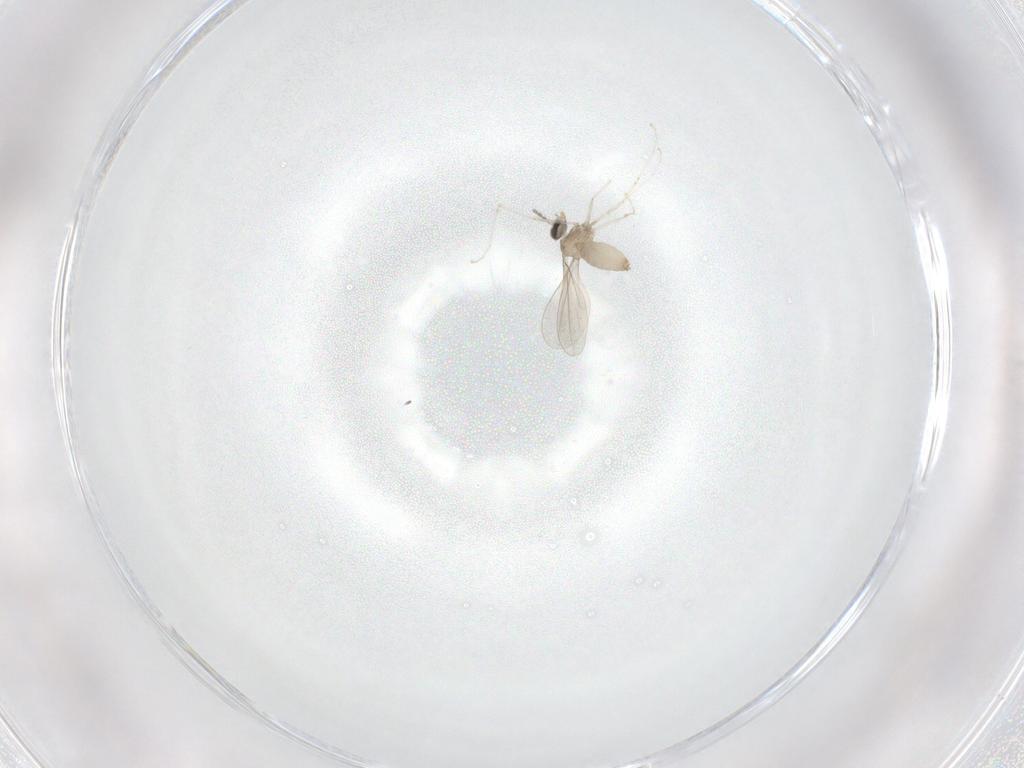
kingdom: Animalia
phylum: Arthropoda
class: Insecta
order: Diptera
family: Cecidomyiidae
